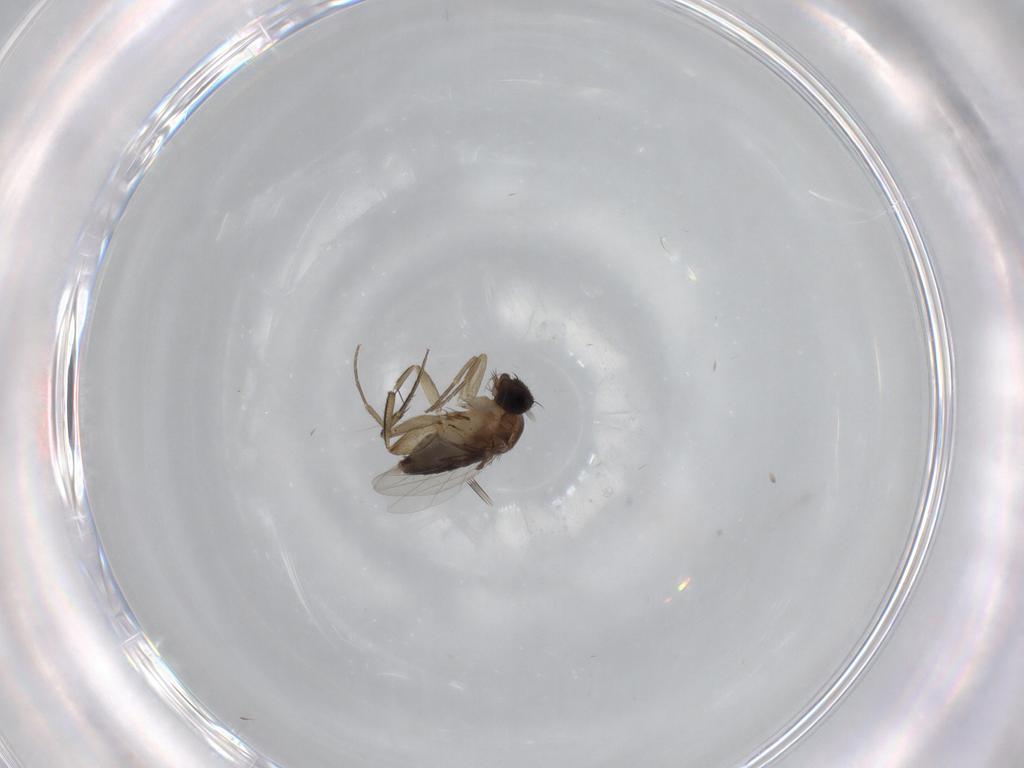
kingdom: Animalia
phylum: Arthropoda
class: Insecta
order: Diptera
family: Phoridae
